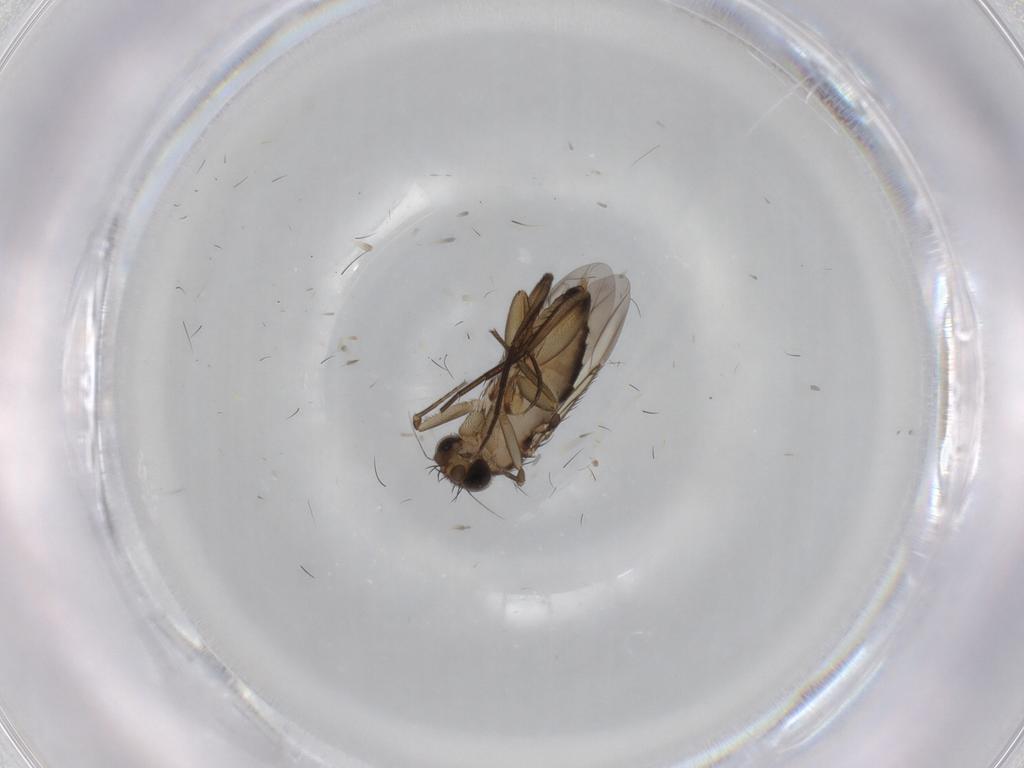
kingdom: Animalia
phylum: Arthropoda
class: Insecta
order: Diptera
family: Phoridae
